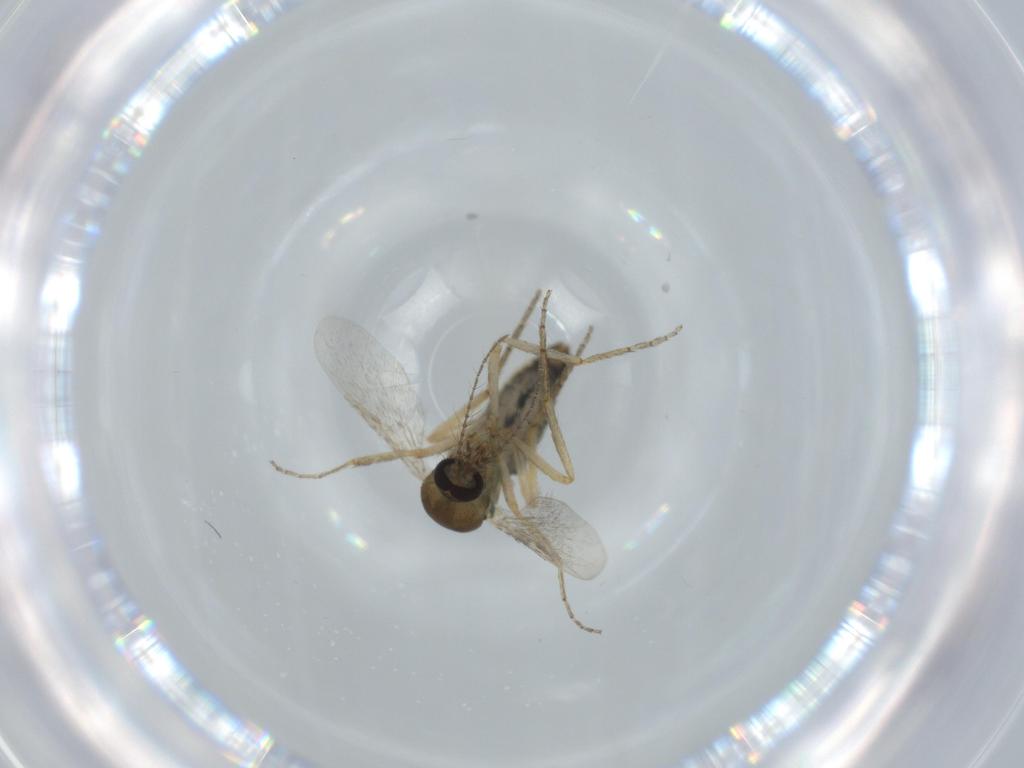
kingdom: Animalia
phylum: Arthropoda
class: Insecta
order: Diptera
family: Ceratopogonidae
